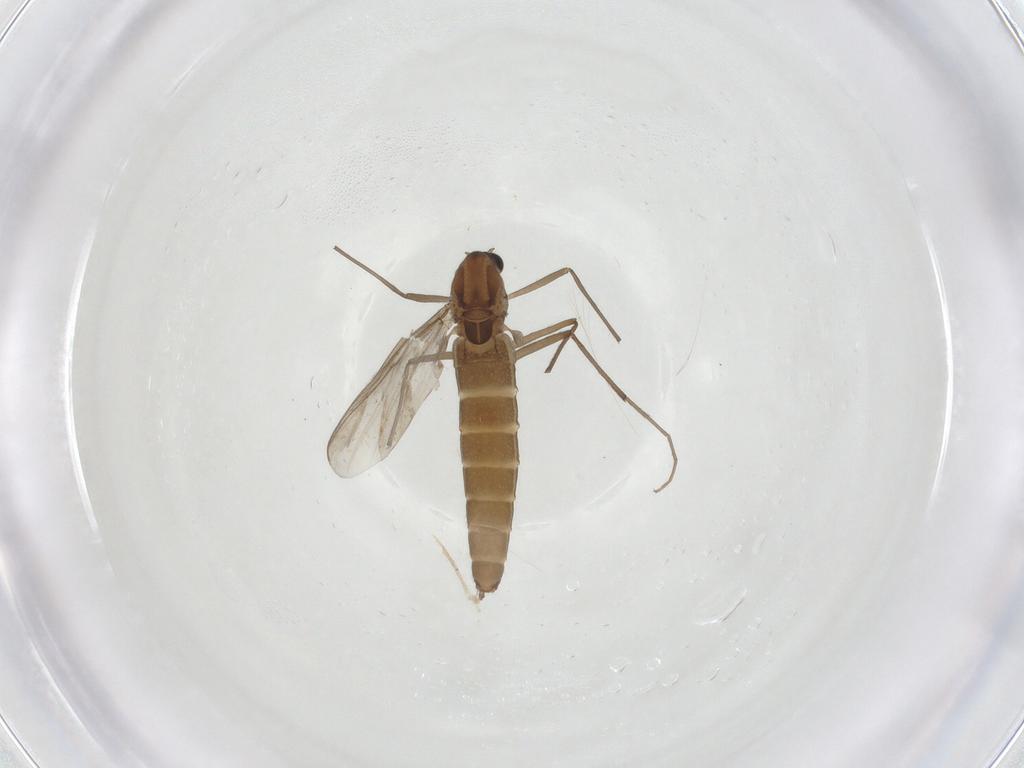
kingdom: Animalia
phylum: Arthropoda
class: Insecta
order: Diptera
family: Chironomidae
